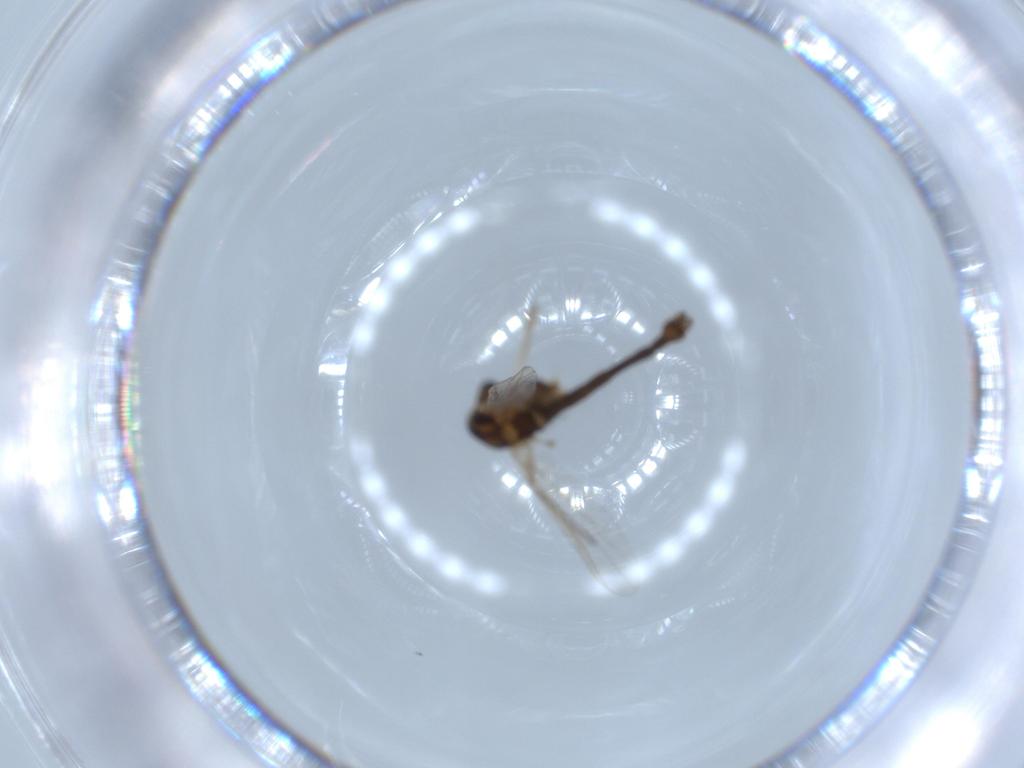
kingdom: Animalia
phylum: Arthropoda
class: Insecta
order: Diptera
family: Phoridae
